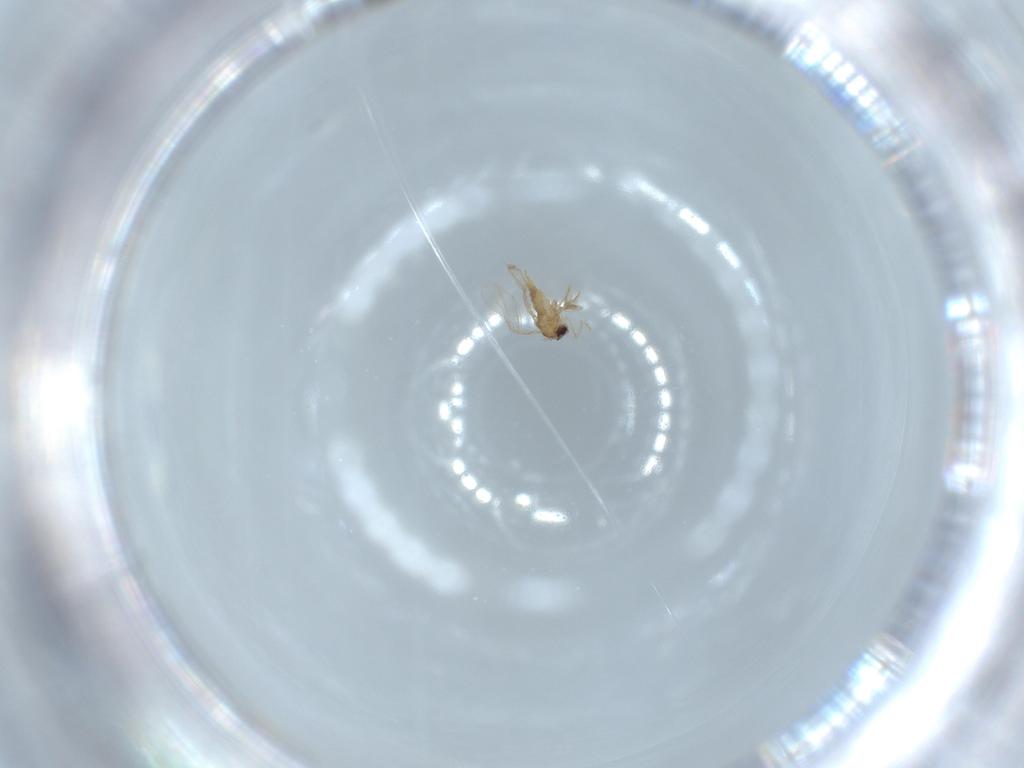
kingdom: Animalia
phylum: Arthropoda
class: Insecta
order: Diptera
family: Cecidomyiidae
